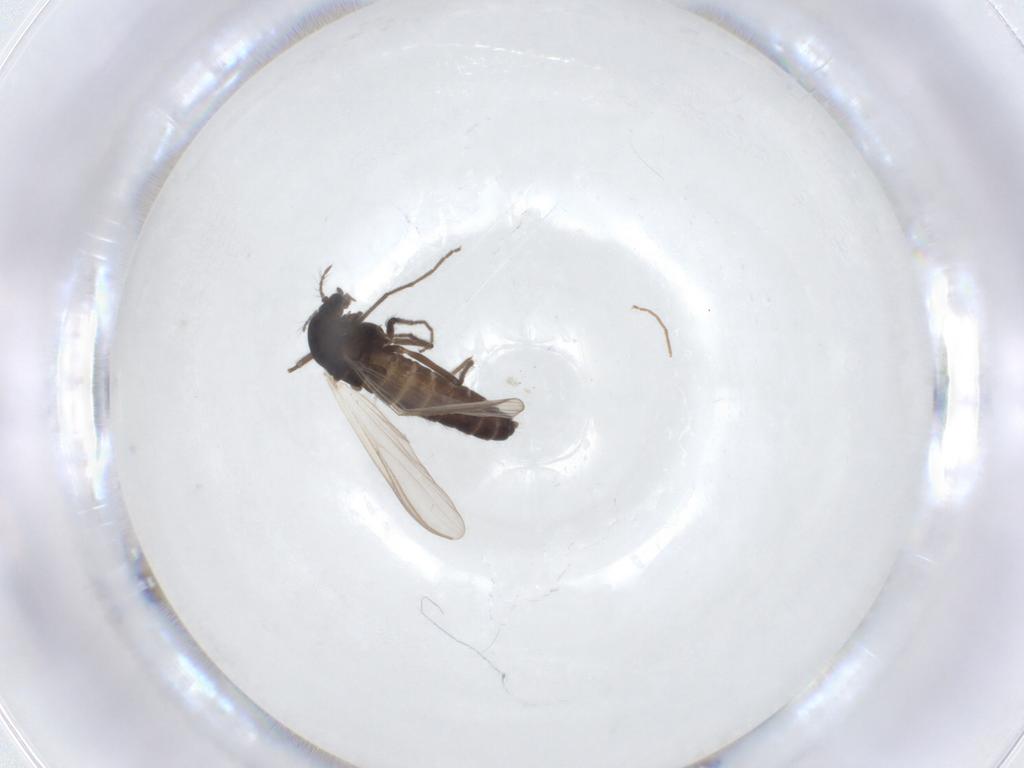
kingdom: Animalia
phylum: Arthropoda
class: Insecta
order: Diptera
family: Chironomidae
